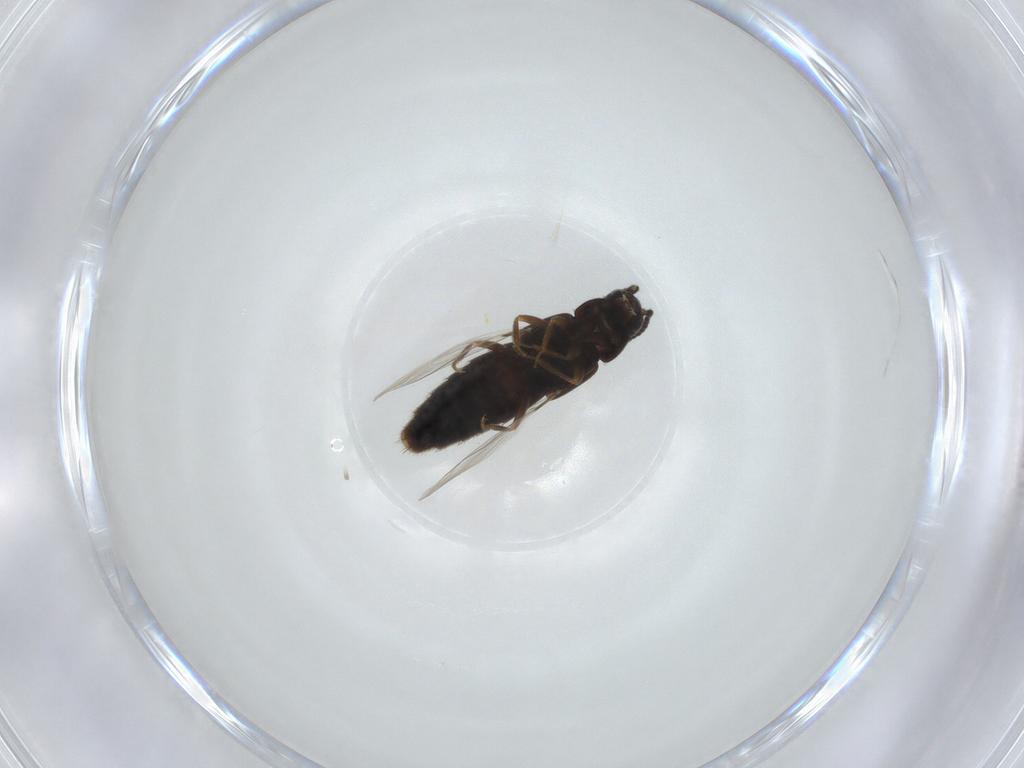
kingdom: Animalia
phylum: Arthropoda
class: Insecta
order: Coleoptera
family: Staphylinidae
